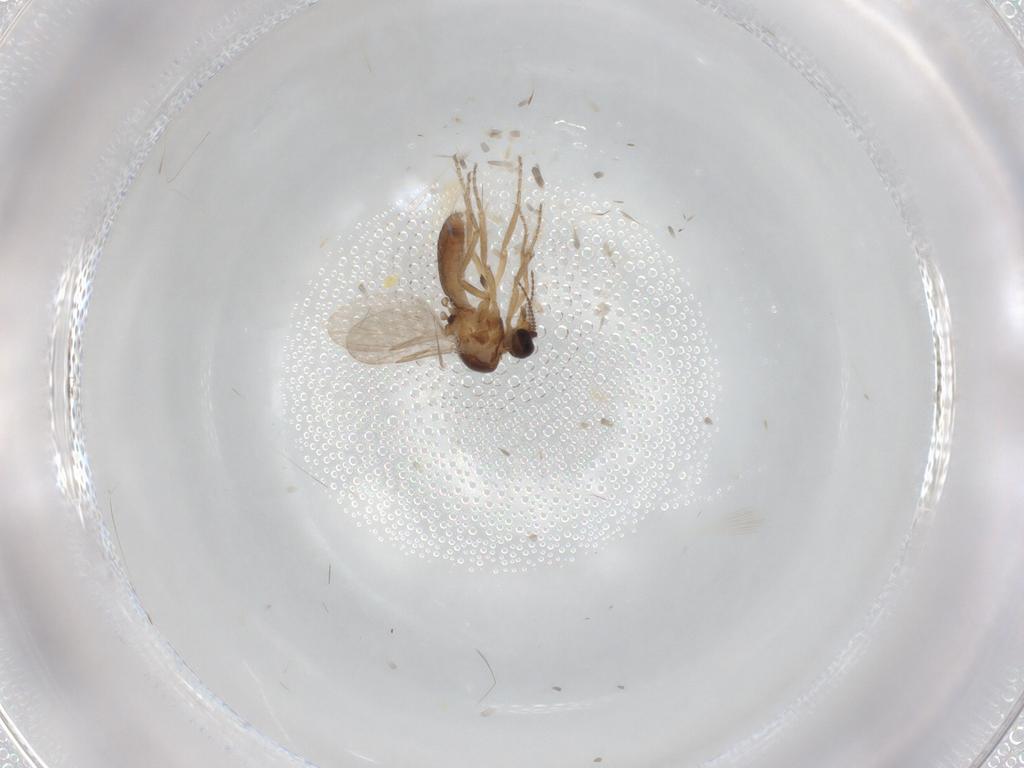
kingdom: Animalia
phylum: Arthropoda
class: Insecta
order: Diptera
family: Ceratopogonidae
